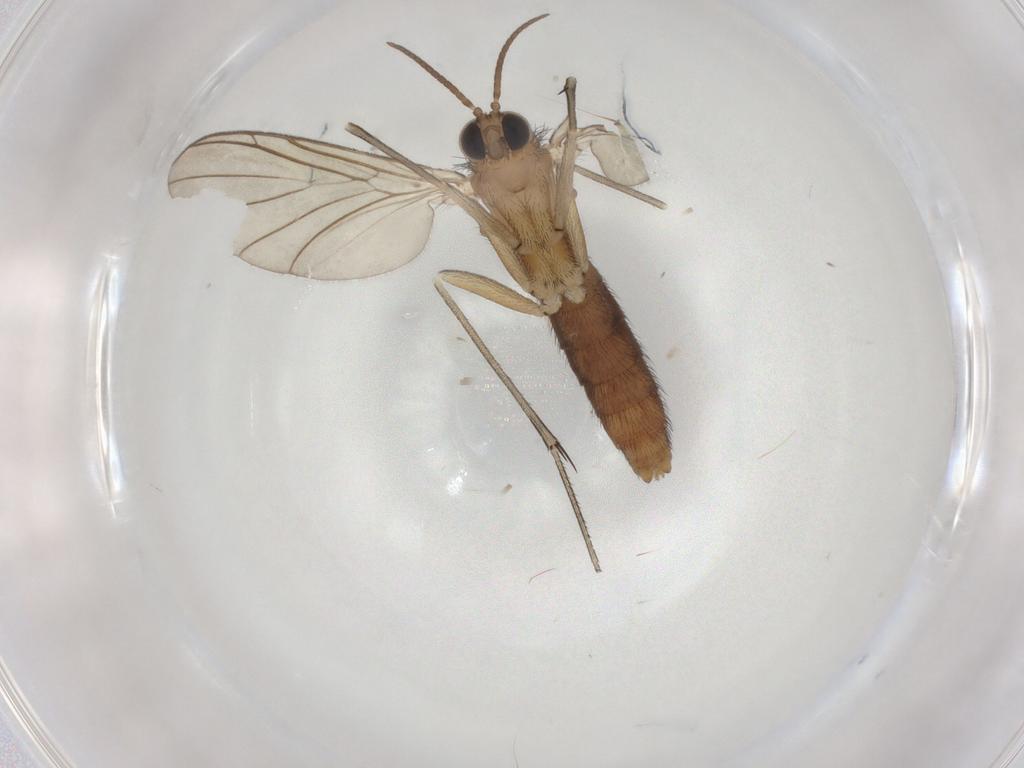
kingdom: Animalia
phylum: Arthropoda
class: Insecta
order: Diptera
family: Keroplatidae
